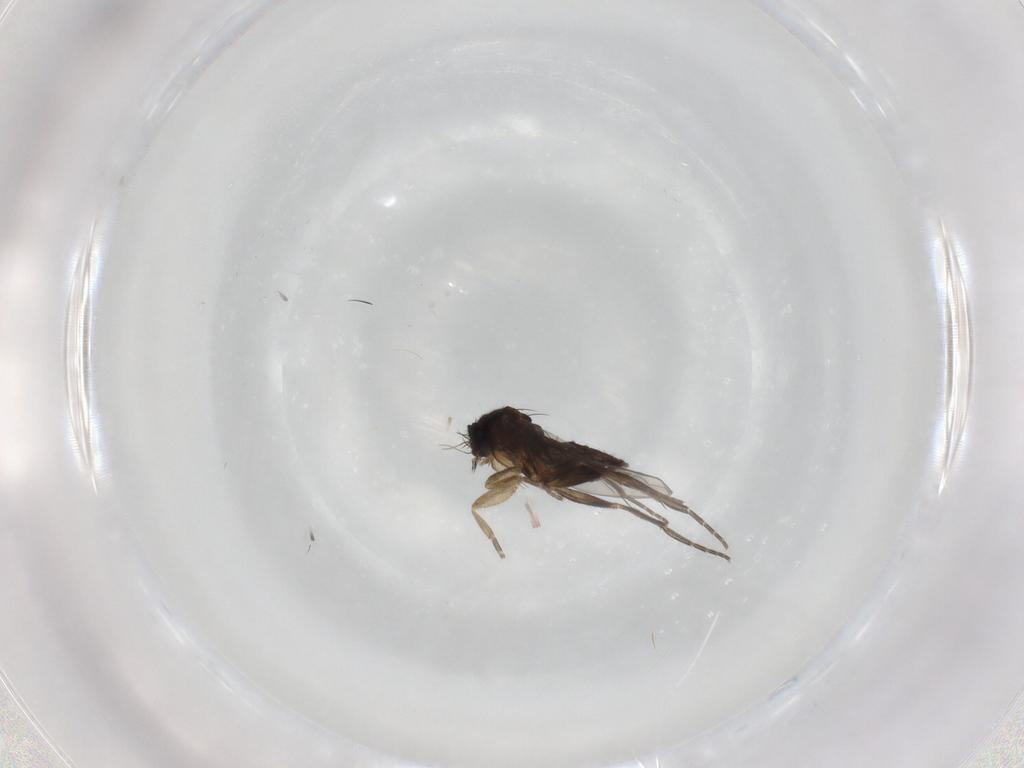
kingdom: Animalia
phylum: Arthropoda
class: Insecta
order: Diptera
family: Phoridae
